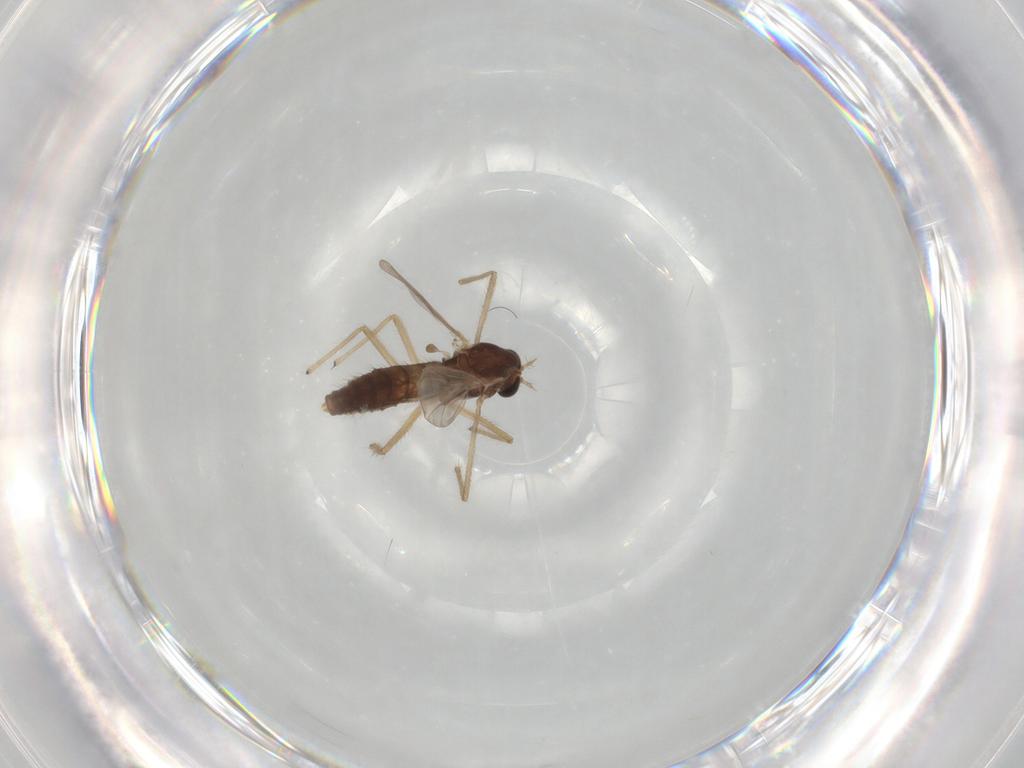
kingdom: Animalia
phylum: Arthropoda
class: Insecta
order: Diptera
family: Chironomidae
